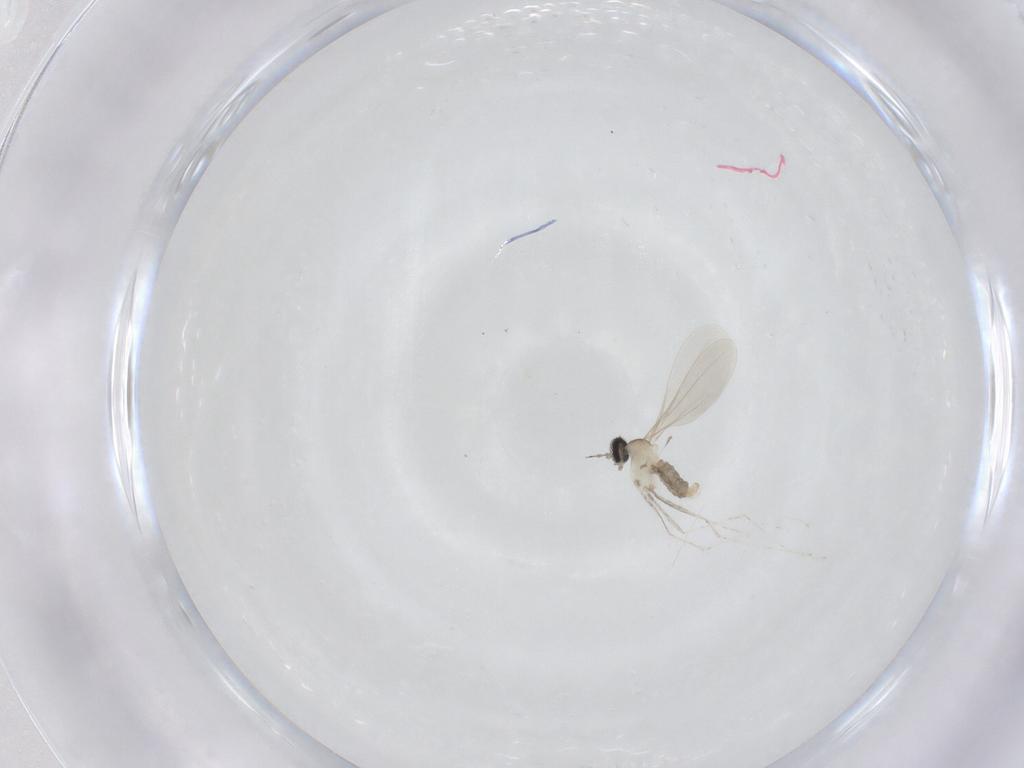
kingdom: Animalia
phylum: Arthropoda
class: Insecta
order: Diptera
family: Cecidomyiidae
